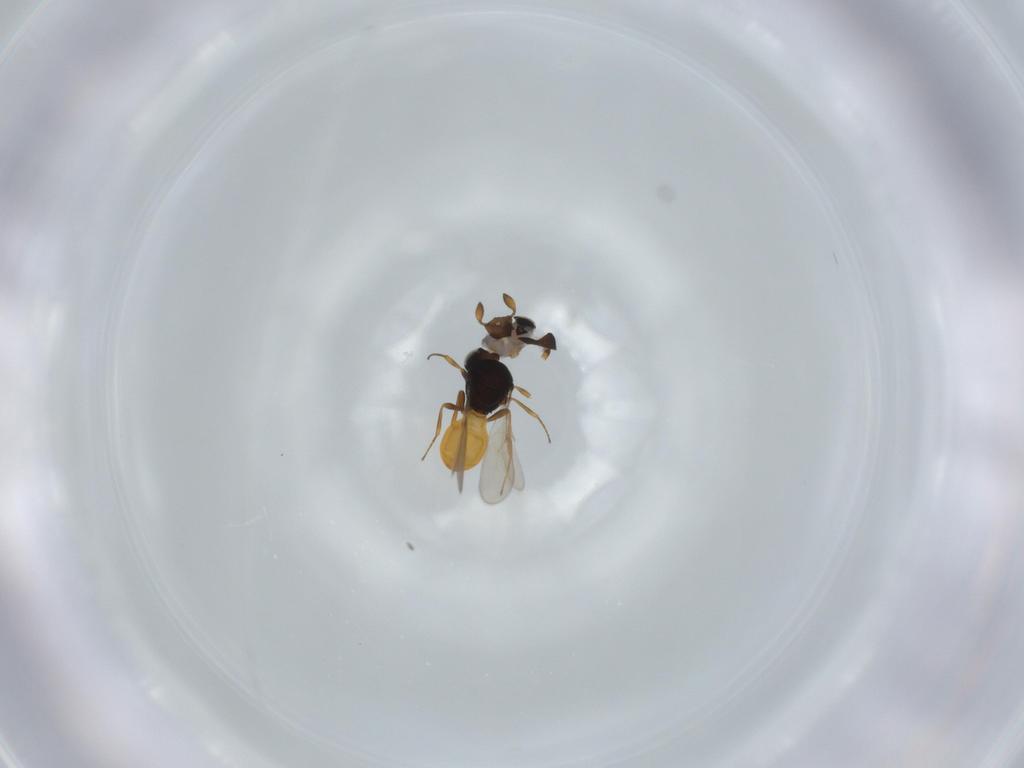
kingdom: Animalia
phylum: Arthropoda
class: Insecta
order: Hymenoptera
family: Scelionidae
